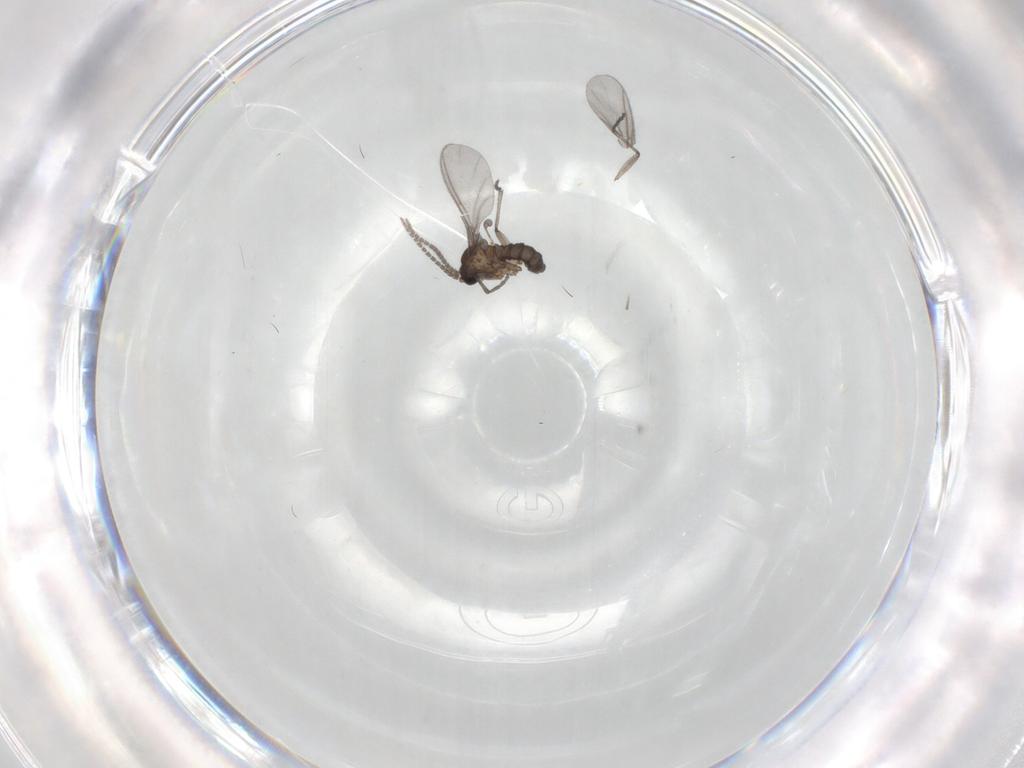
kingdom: Animalia
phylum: Arthropoda
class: Insecta
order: Diptera
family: Sciaridae
